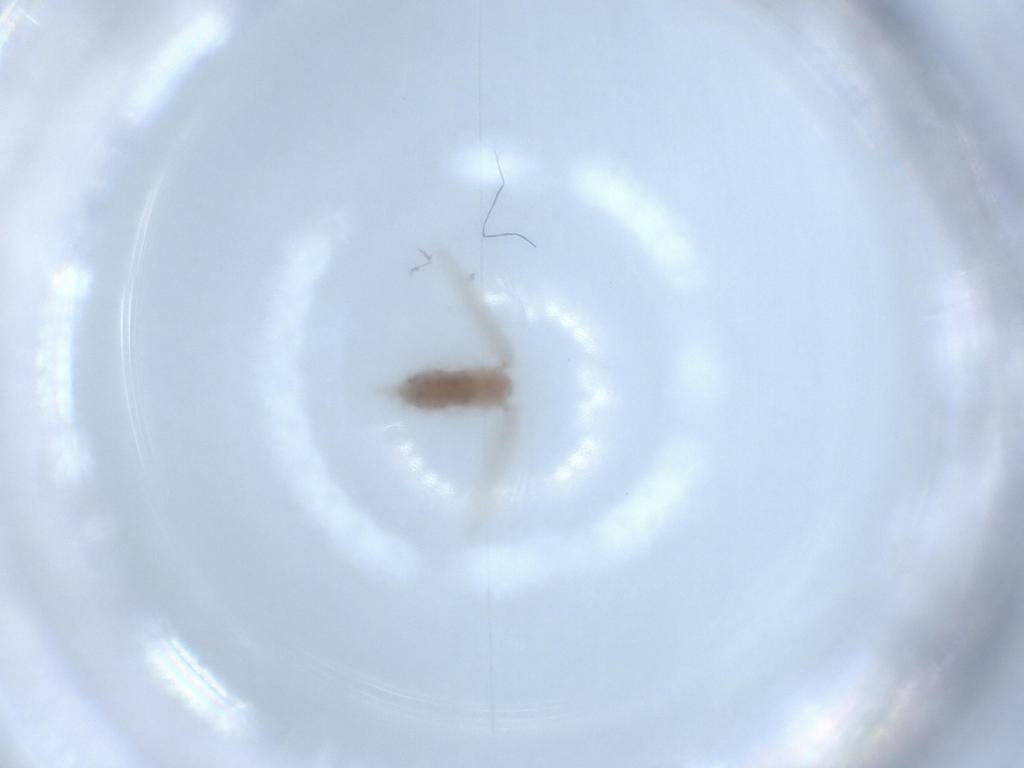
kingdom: Animalia
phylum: Arthropoda
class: Insecta
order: Diptera
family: Psychodidae
